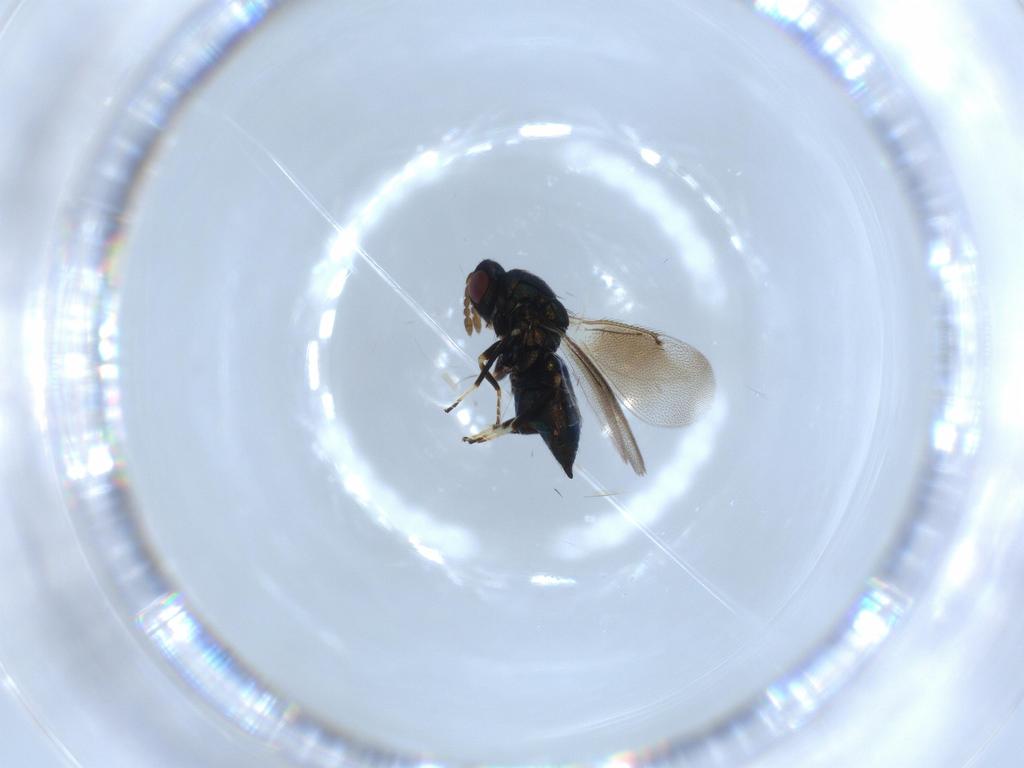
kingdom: Animalia
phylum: Arthropoda
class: Insecta
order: Hymenoptera
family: Eulophidae
